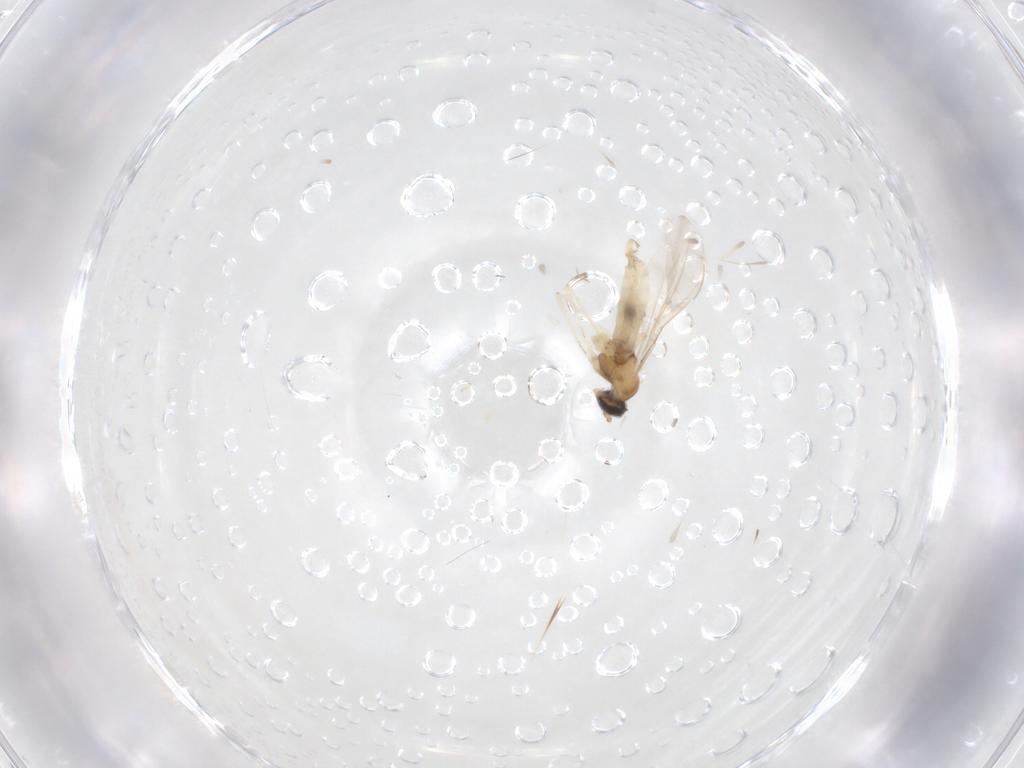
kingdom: Animalia
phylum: Arthropoda
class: Insecta
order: Diptera
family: Cecidomyiidae
